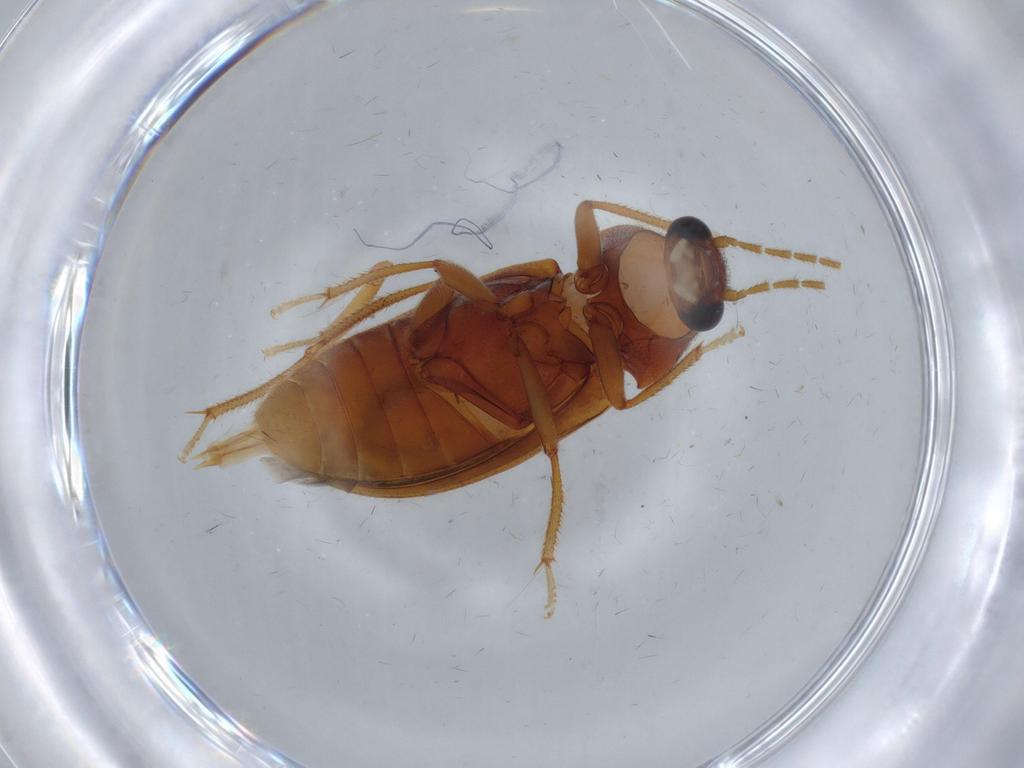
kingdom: Animalia
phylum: Arthropoda
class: Insecta
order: Coleoptera
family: Ptilodactylidae
